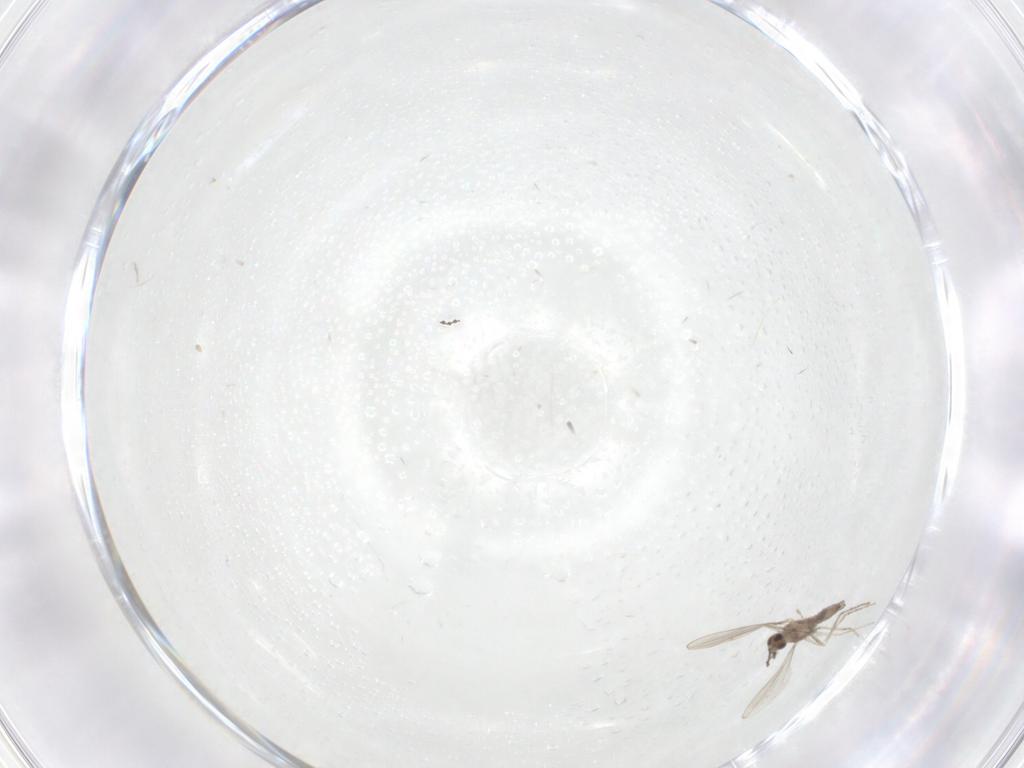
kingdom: Animalia
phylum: Arthropoda
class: Insecta
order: Diptera
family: Cecidomyiidae
